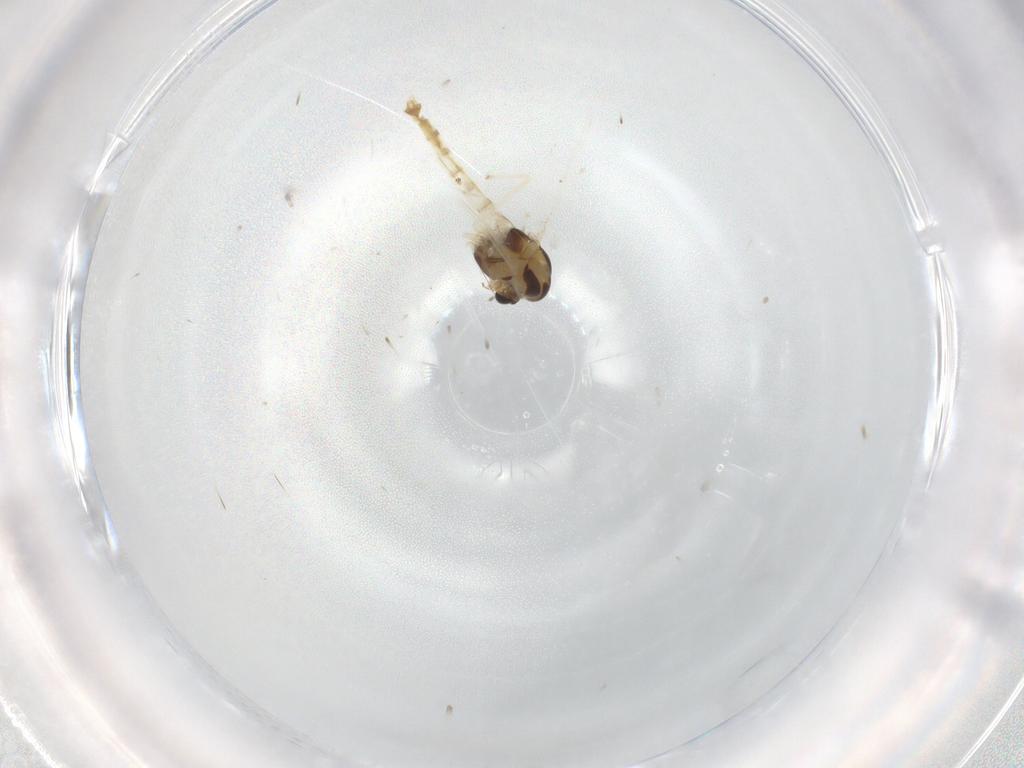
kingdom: Animalia
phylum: Arthropoda
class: Insecta
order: Diptera
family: Chironomidae
